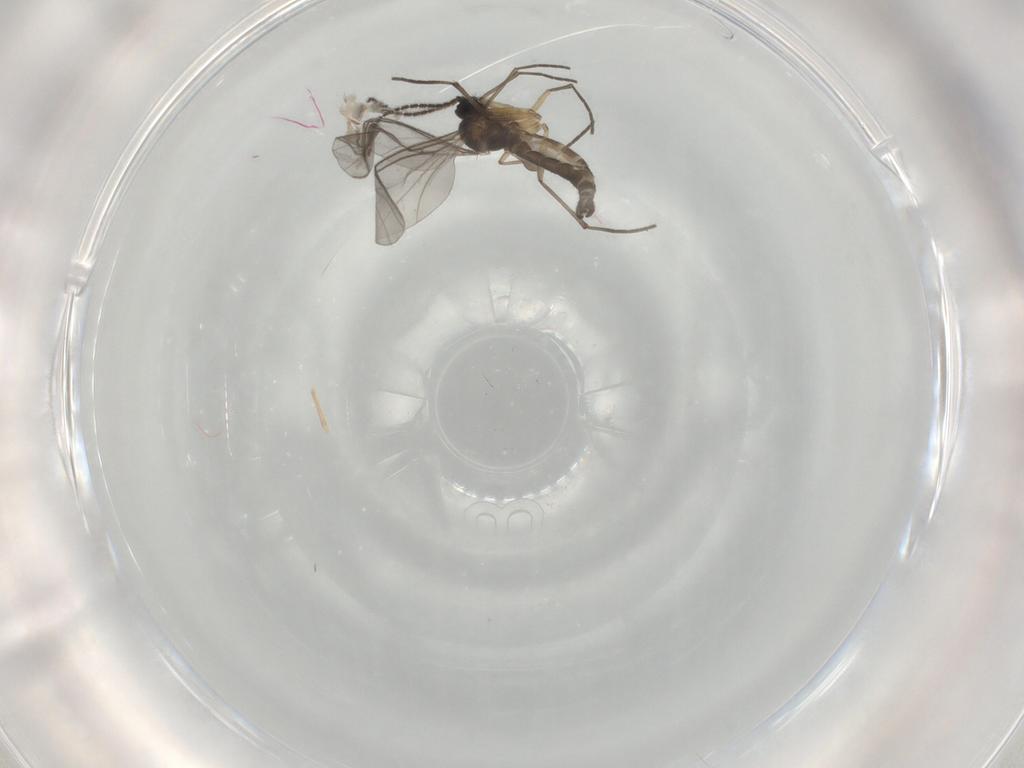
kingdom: Animalia
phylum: Arthropoda
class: Insecta
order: Diptera
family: Sciaridae
